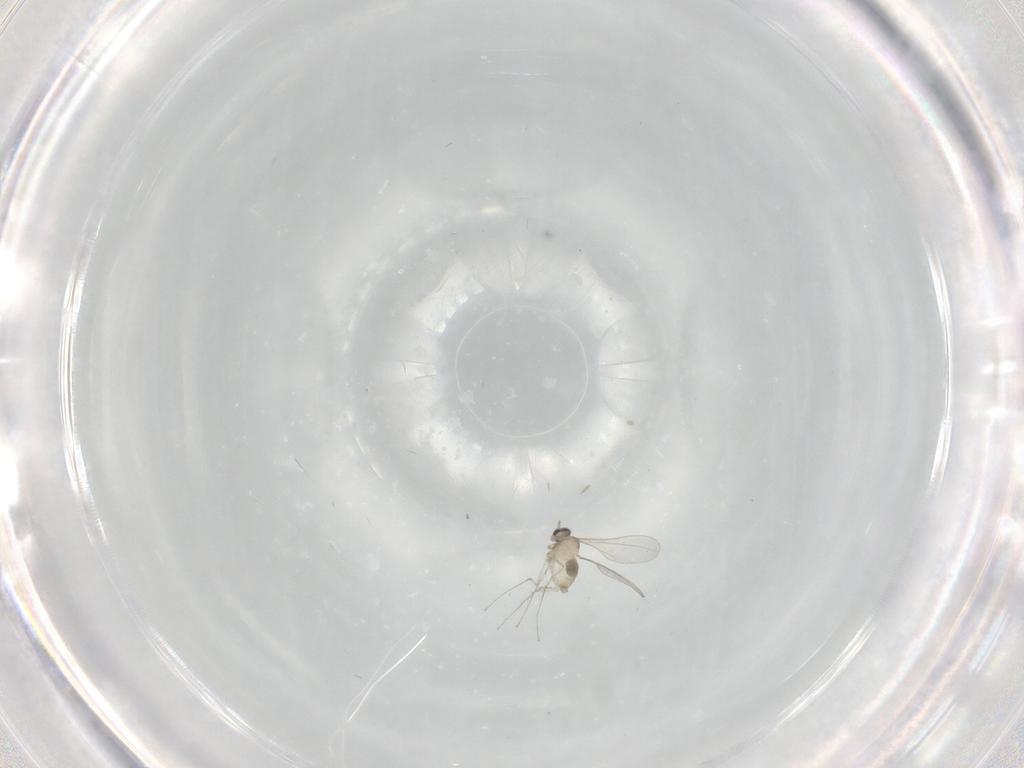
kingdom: Animalia
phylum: Arthropoda
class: Insecta
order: Diptera
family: Cecidomyiidae
